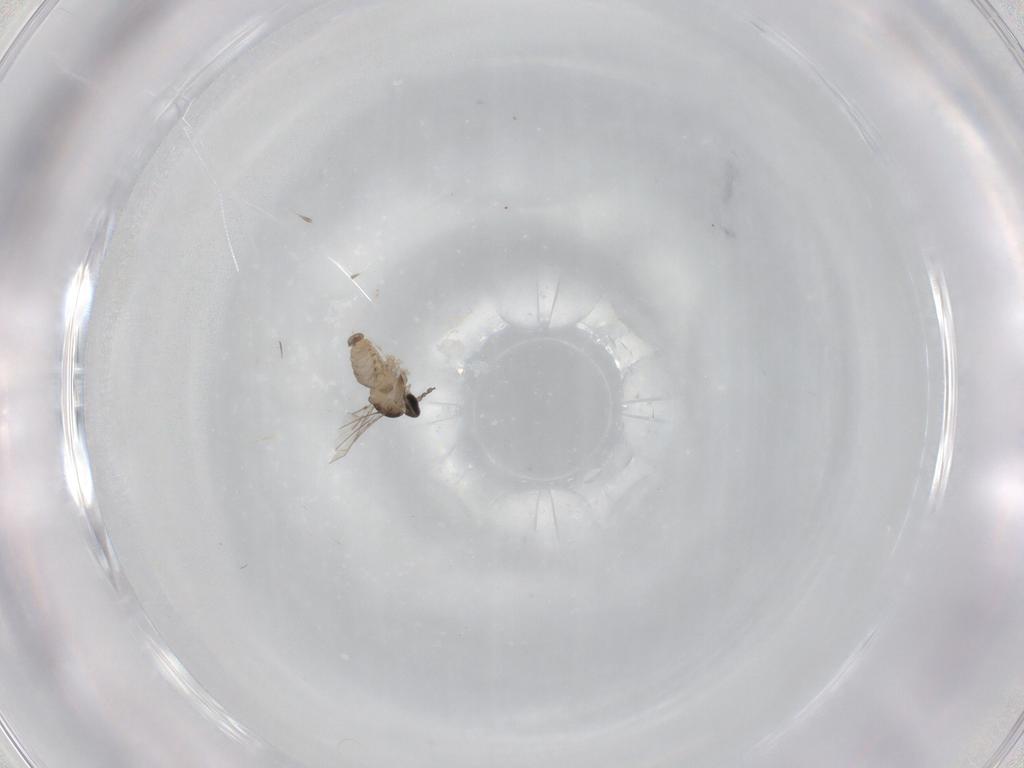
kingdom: Animalia
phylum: Arthropoda
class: Insecta
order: Diptera
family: Cecidomyiidae
